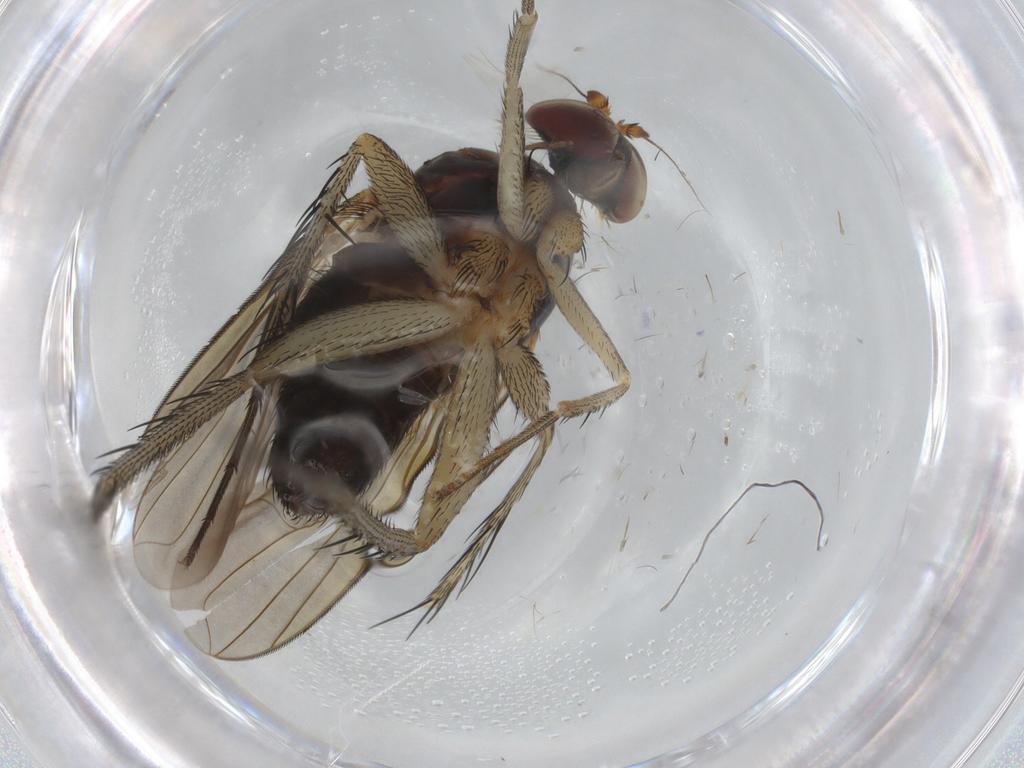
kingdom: Animalia
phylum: Arthropoda
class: Insecta
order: Diptera
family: Dolichopodidae
